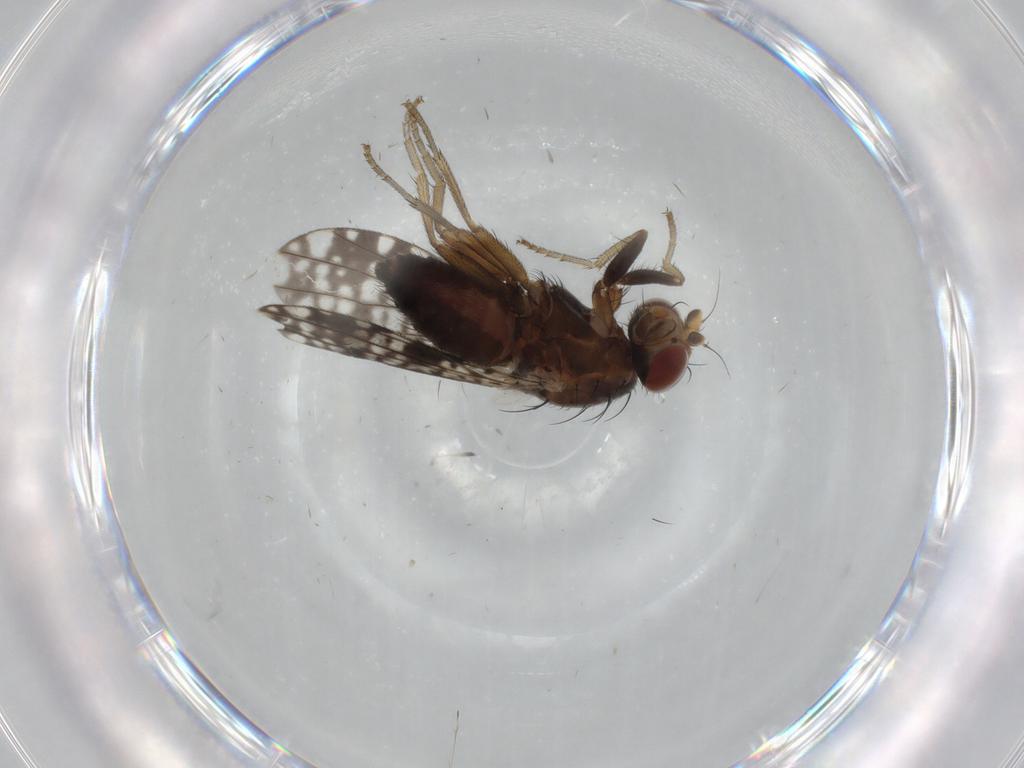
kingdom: Animalia
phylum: Arthropoda
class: Insecta
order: Diptera
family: Tephritidae
